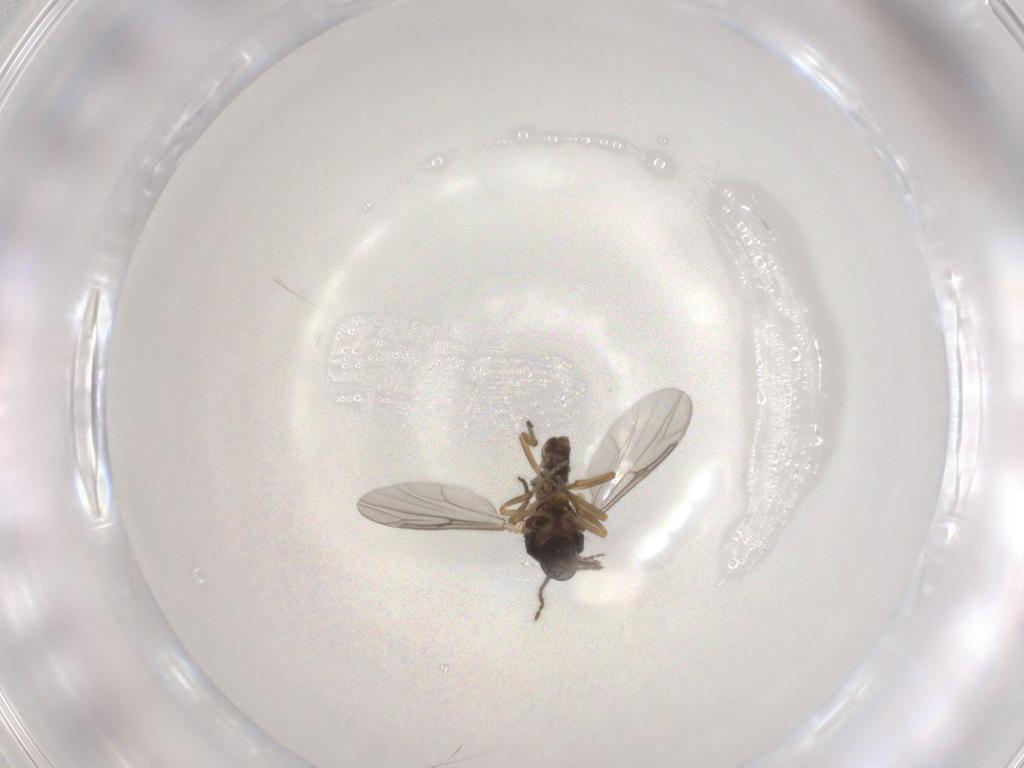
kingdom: Animalia
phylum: Arthropoda
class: Insecta
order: Diptera
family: Ceratopogonidae
